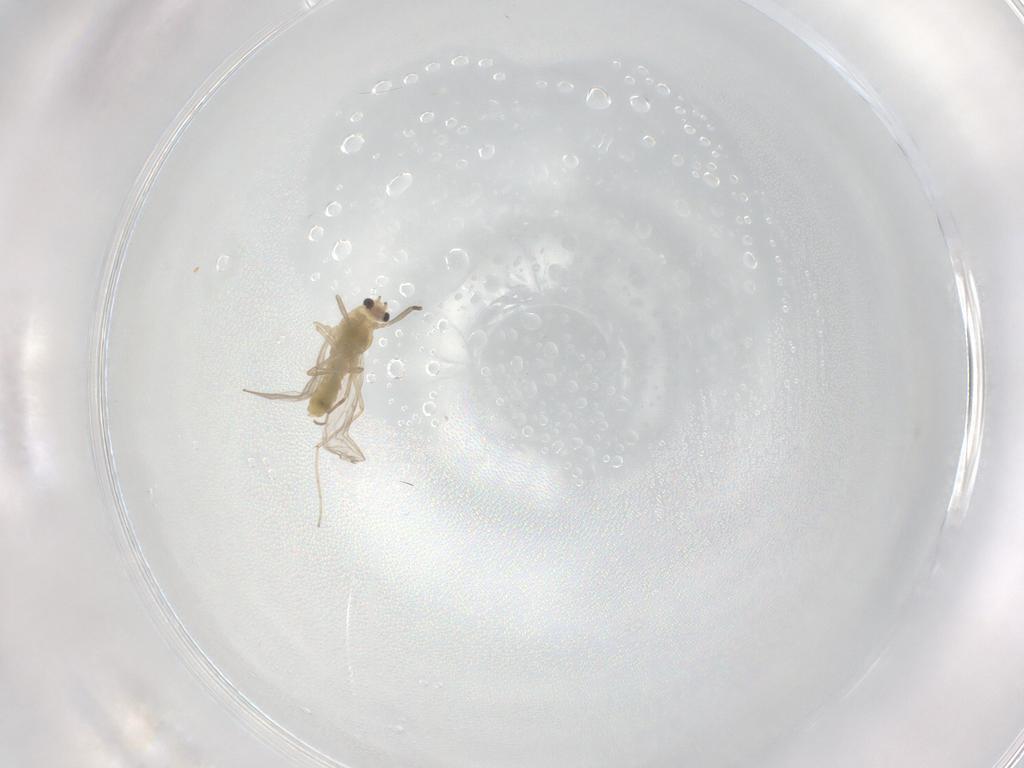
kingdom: Animalia
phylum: Arthropoda
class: Insecta
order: Diptera
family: Chironomidae
